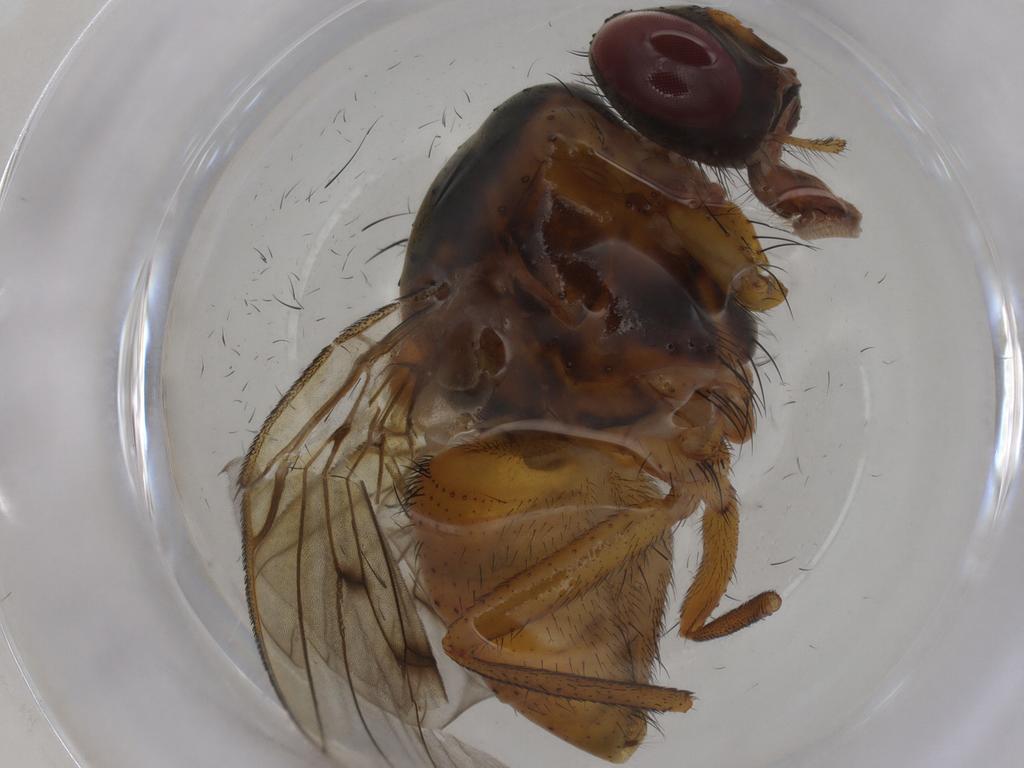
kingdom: Animalia
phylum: Arthropoda
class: Insecta
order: Diptera
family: Muscidae
